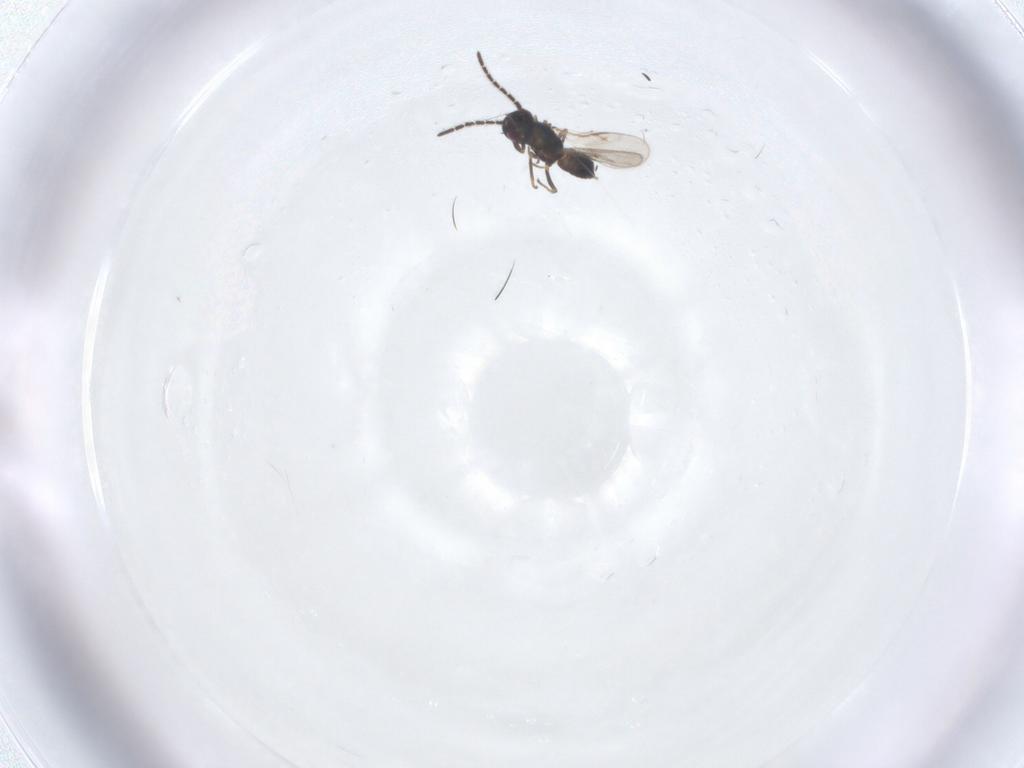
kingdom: Animalia
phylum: Arthropoda
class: Insecta
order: Hymenoptera
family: Encyrtidae
